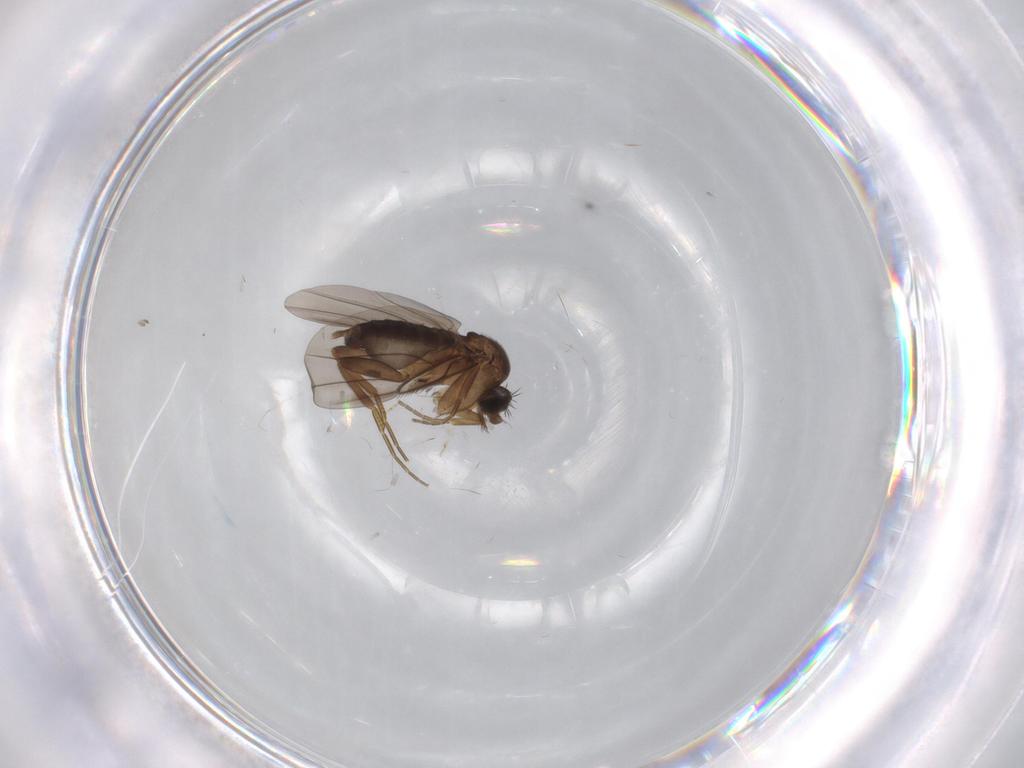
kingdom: Animalia
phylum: Arthropoda
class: Insecta
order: Diptera
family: Phoridae
